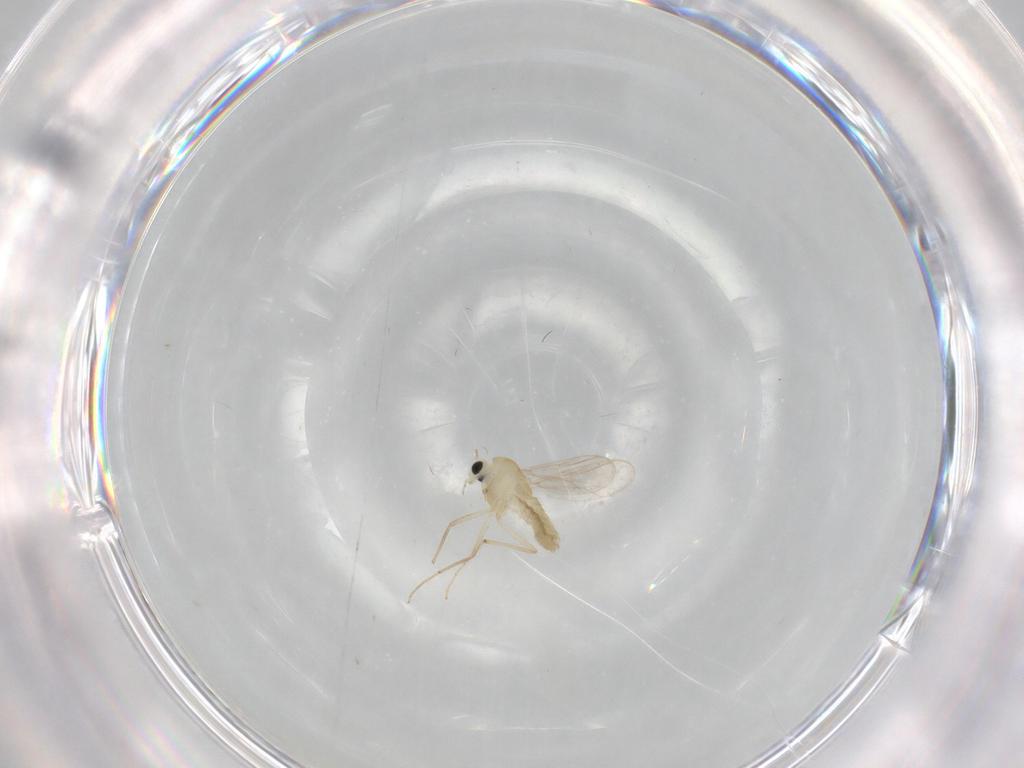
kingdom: Animalia
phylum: Arthropoda
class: Insecta
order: Diptera
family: Chironomidae
